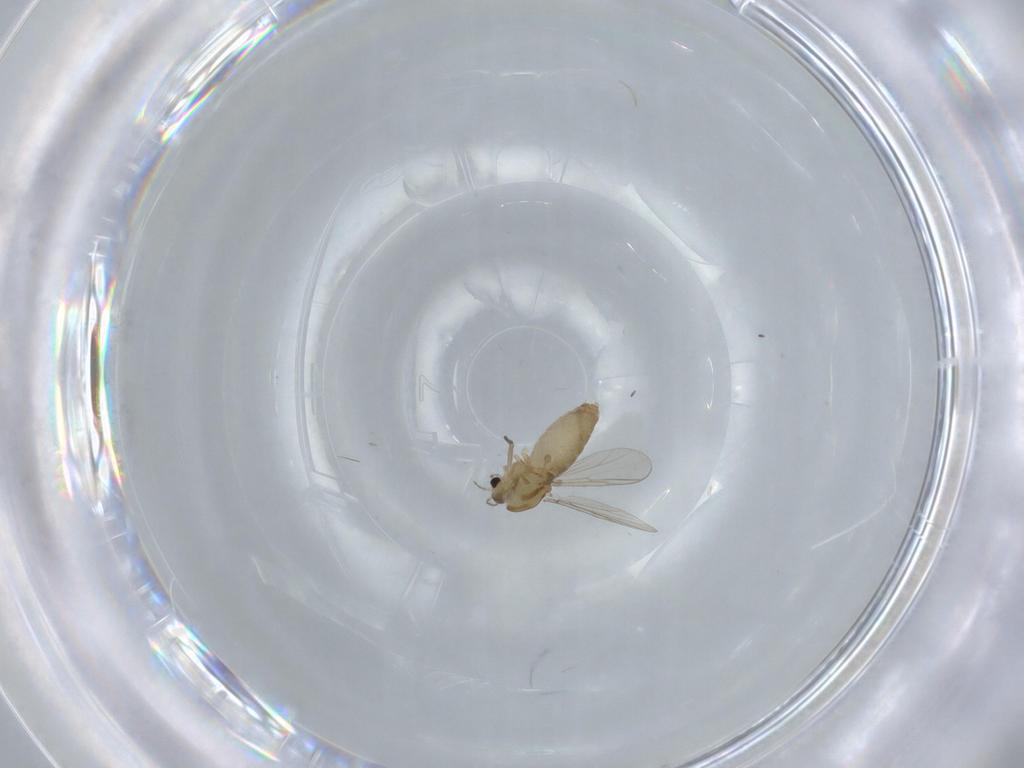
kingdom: Animalia
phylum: Arthropoda
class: Insecta
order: Diptera
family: Chironomidae
